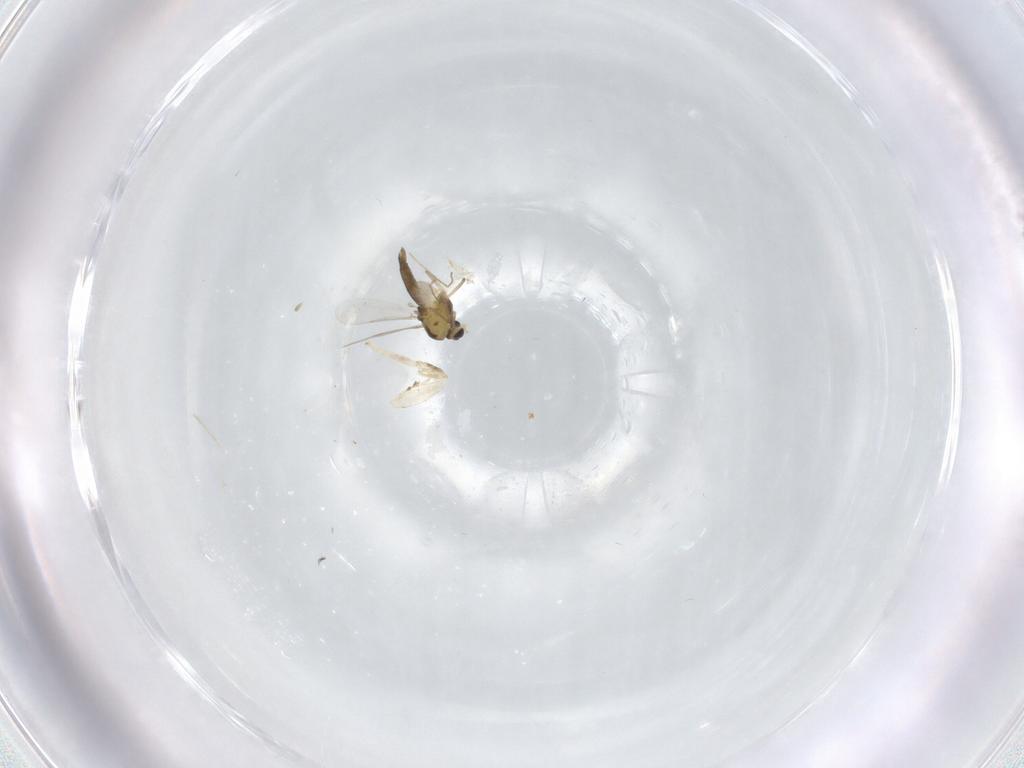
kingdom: Animalia
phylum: Arthropoda
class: Insecta
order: Diptera
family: Chironomidae
